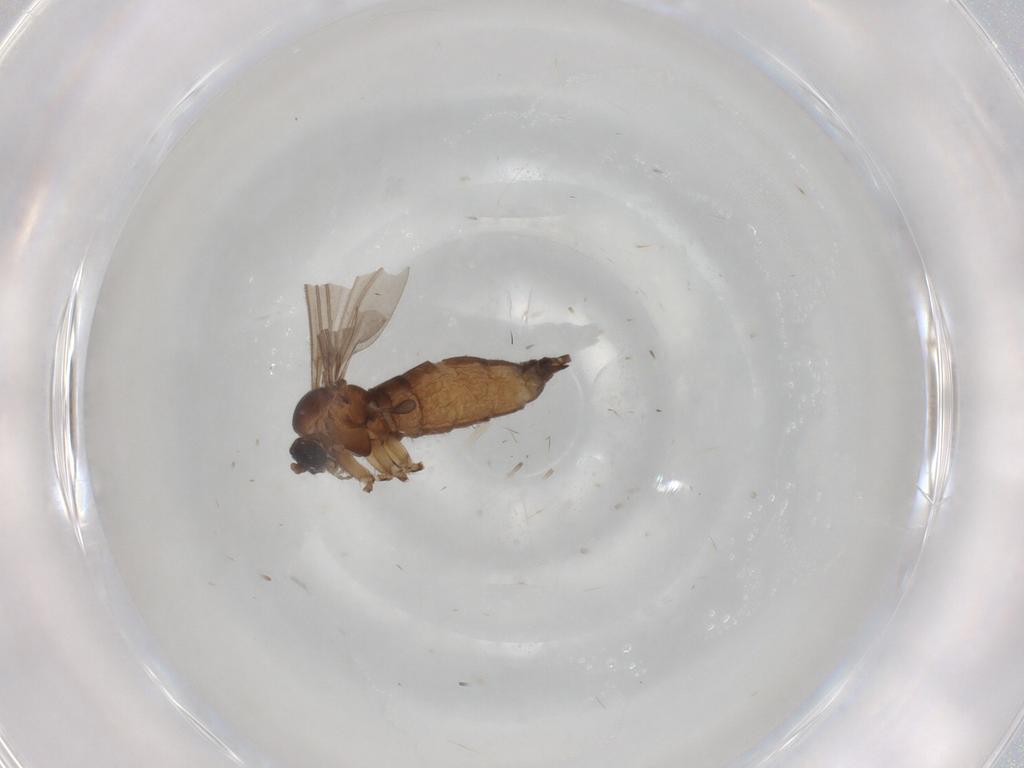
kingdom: Animalia
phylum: Arthropoda
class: Insecta
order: Diptera
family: Sciaridae
